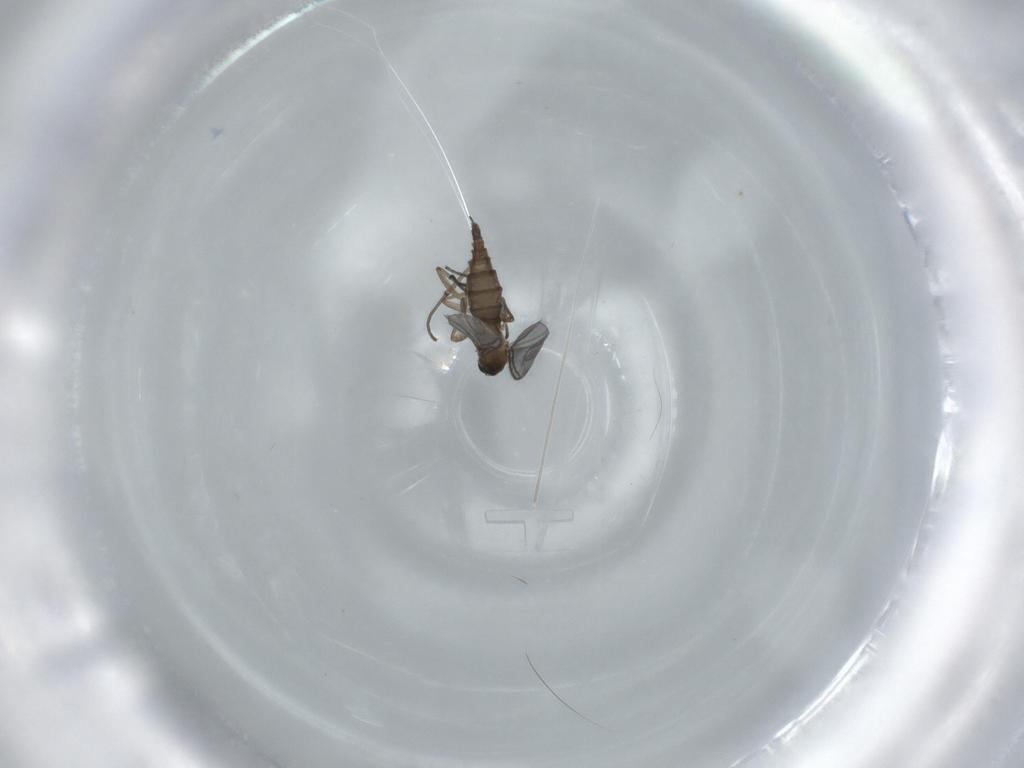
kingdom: Animalia
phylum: Arthropoda
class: Insecta
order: Diptera
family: Sciaridae
